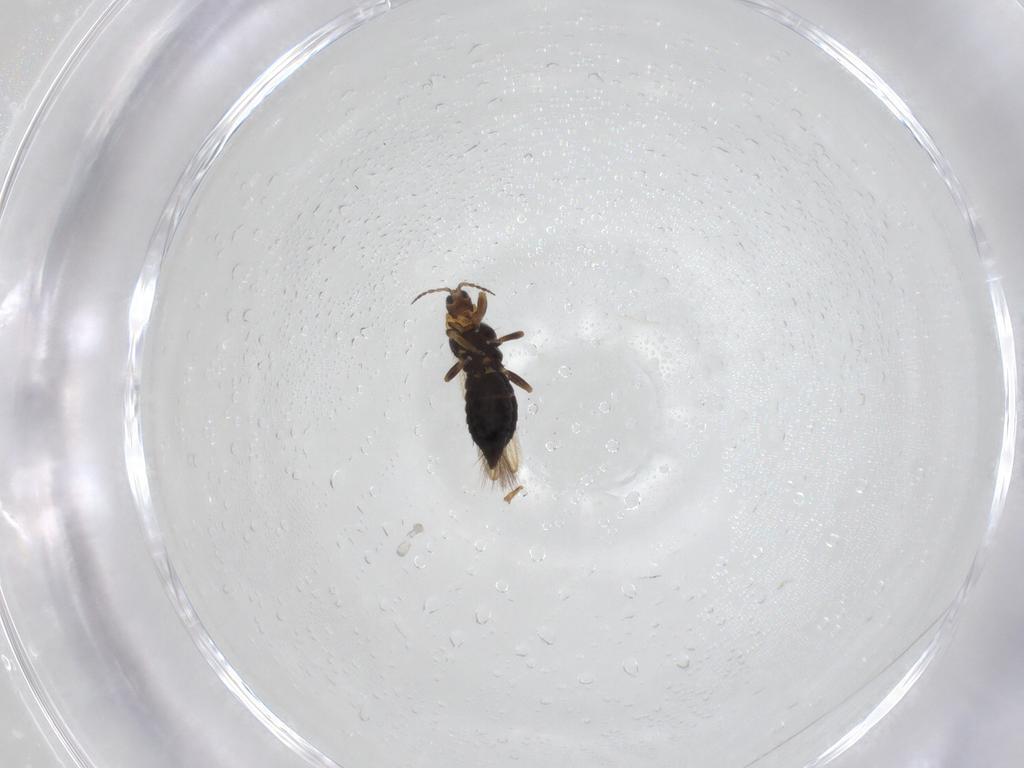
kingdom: Animalia
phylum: Arthropoda
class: Insecta
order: Thysanoptera
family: Melanthripidae
